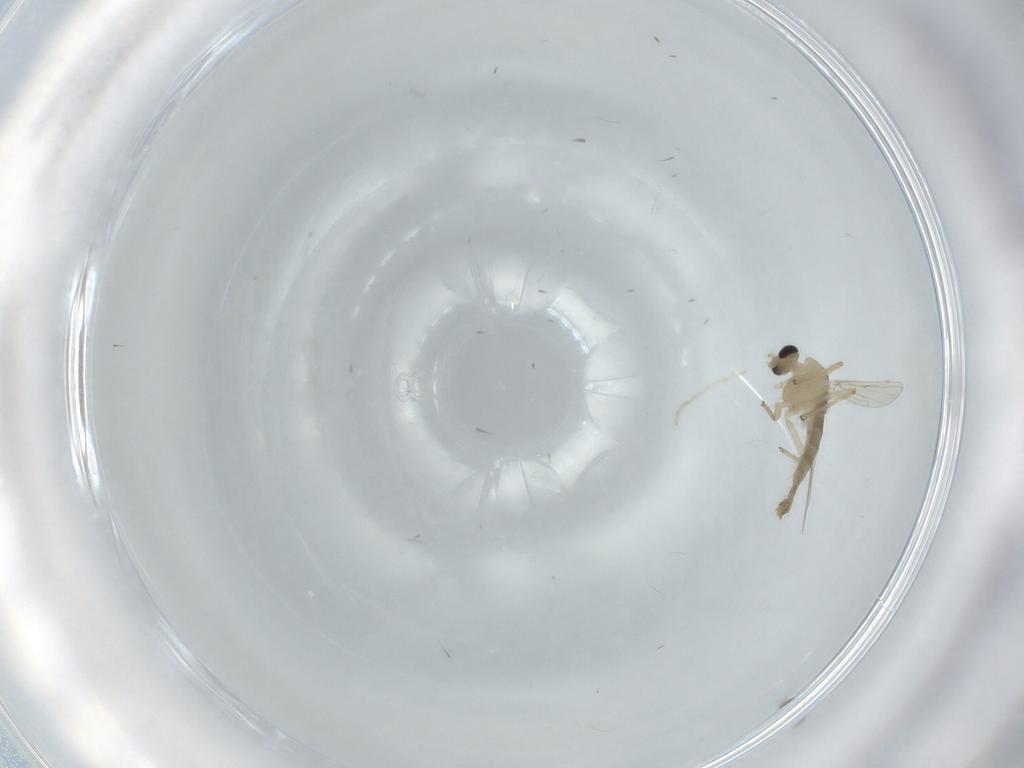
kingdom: Animalia
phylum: Arthropoda
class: Insecta
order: Diptera
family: Chironomidae
